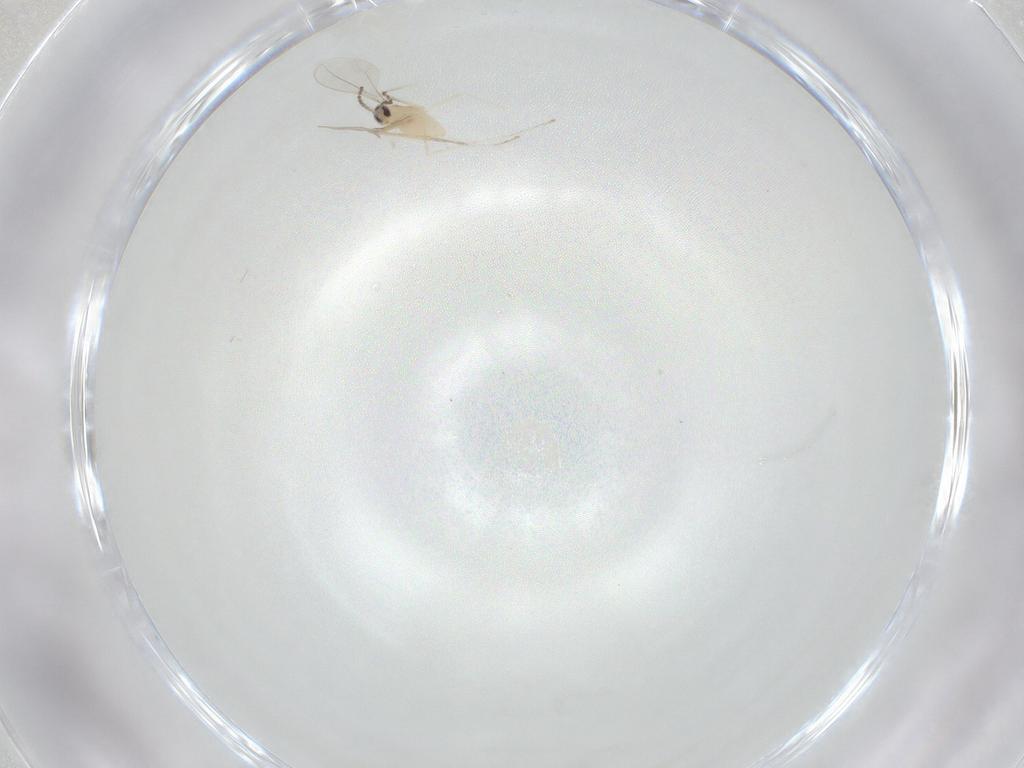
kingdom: Animalia
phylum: Arthropoda
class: Insecta
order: Diptera
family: Cecidomyiidae
